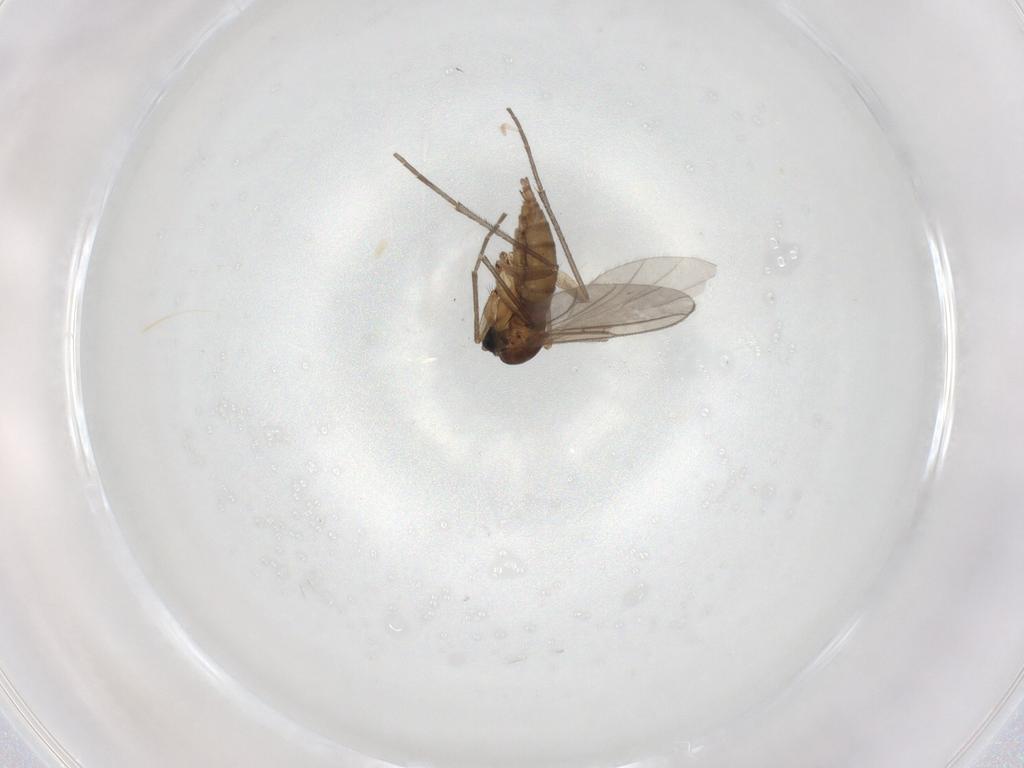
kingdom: Animalia
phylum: Arthropoda
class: Insecta
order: Diptera
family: Sciaridae
